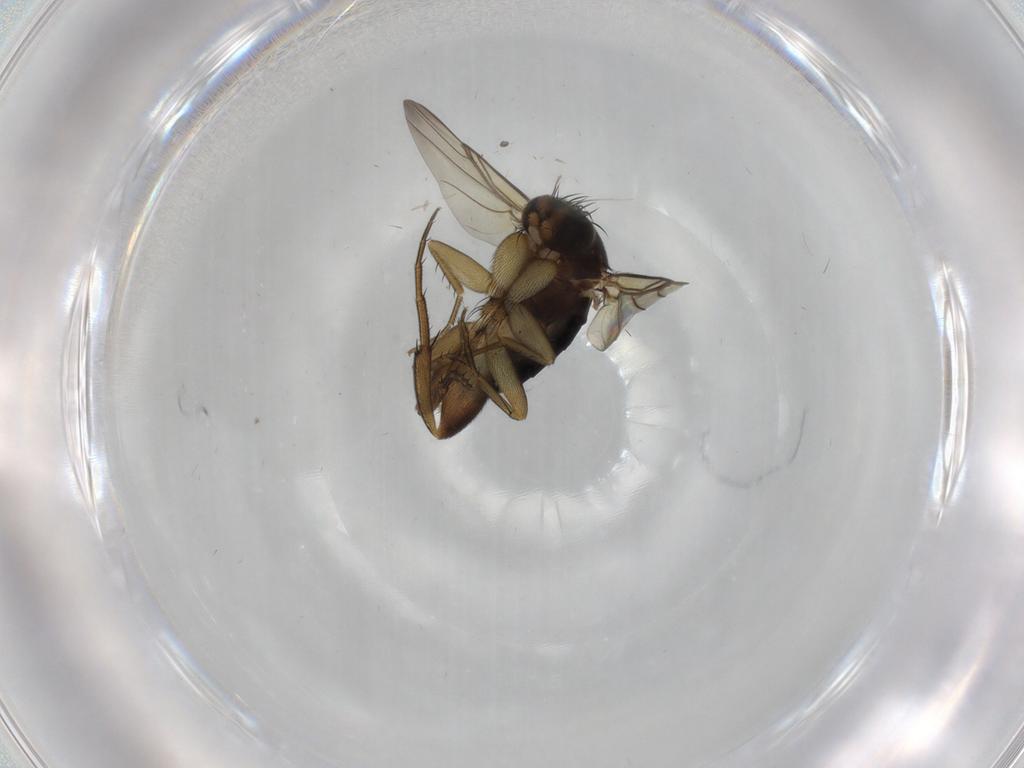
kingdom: Animalia
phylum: Arthropoda
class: Insecta
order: Diptera
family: Phoridae
